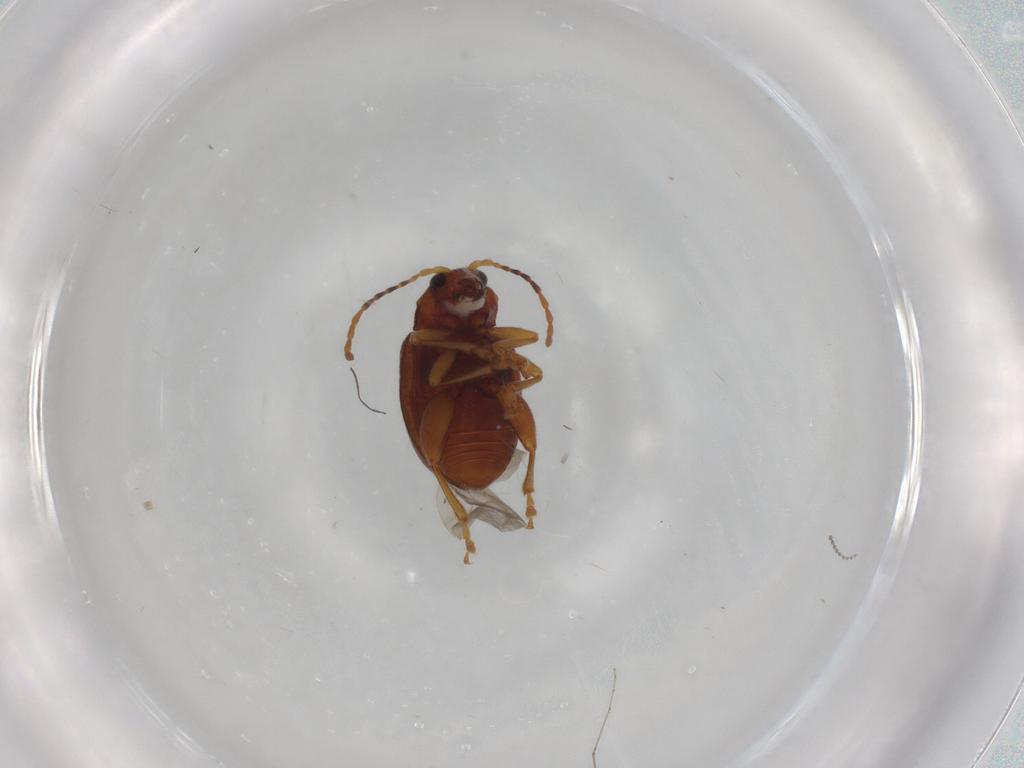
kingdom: Animalia
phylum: Arthropoda
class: Insecta
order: Coleoptera
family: Chrysomelidae
